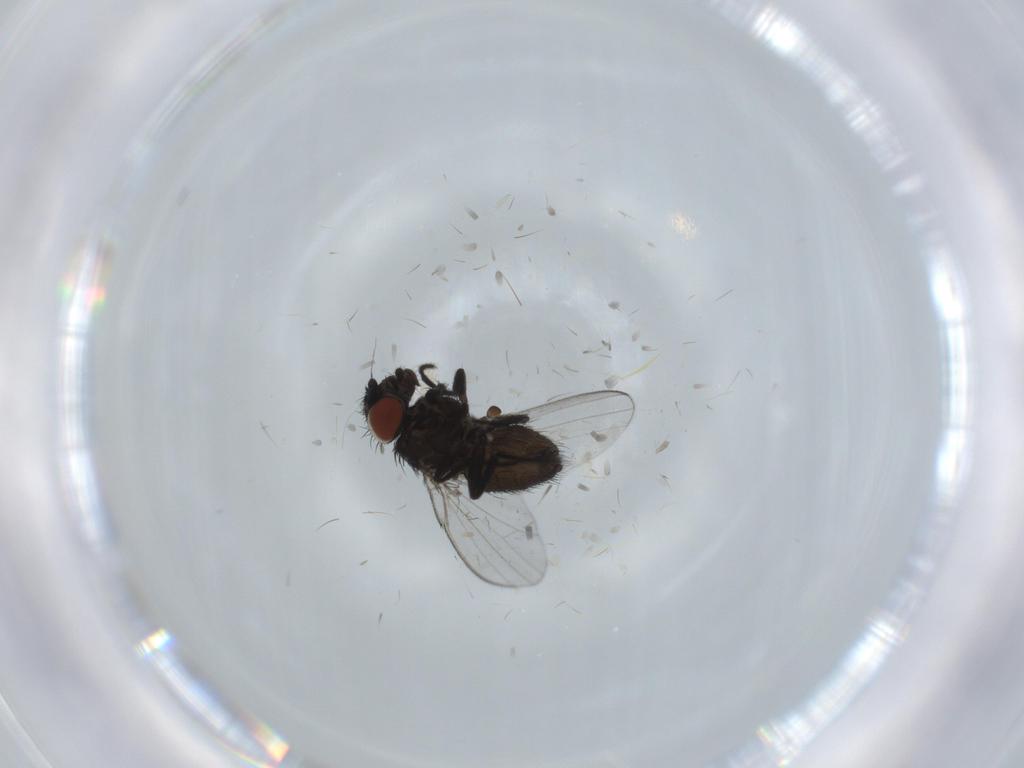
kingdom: Animalia
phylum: Arthropoda
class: Insecta
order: Diptera
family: Milichiidae
